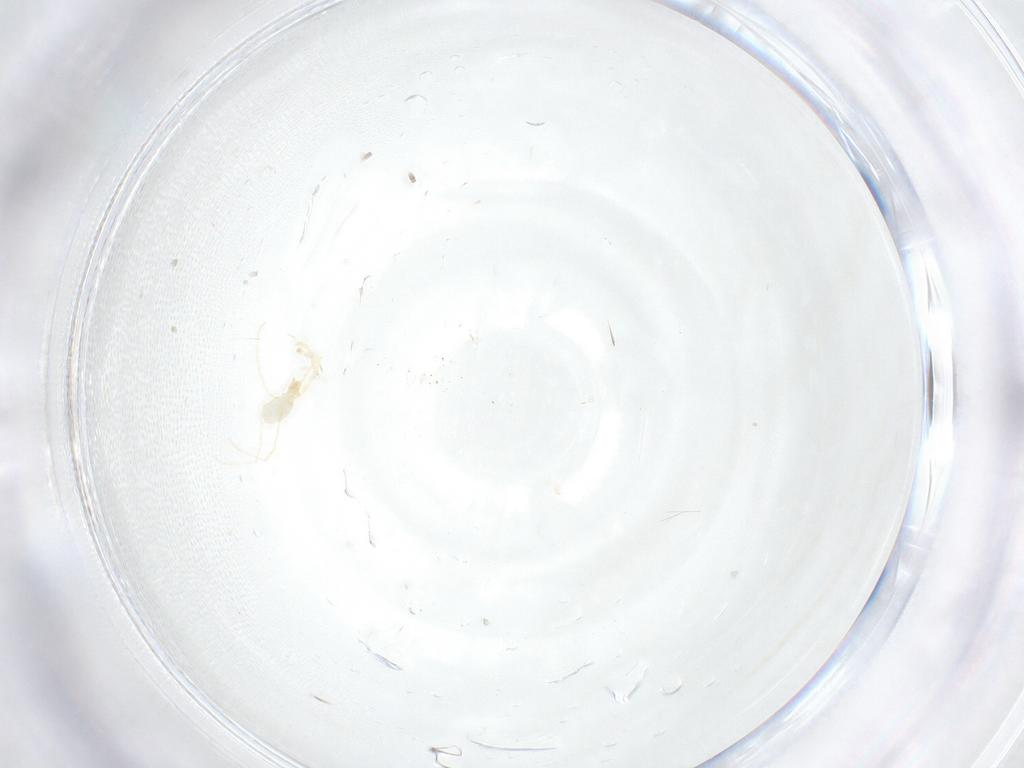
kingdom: Animalia
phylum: Arthropoda
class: Arachnida
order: Trombidiformes
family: Erythraeidae
